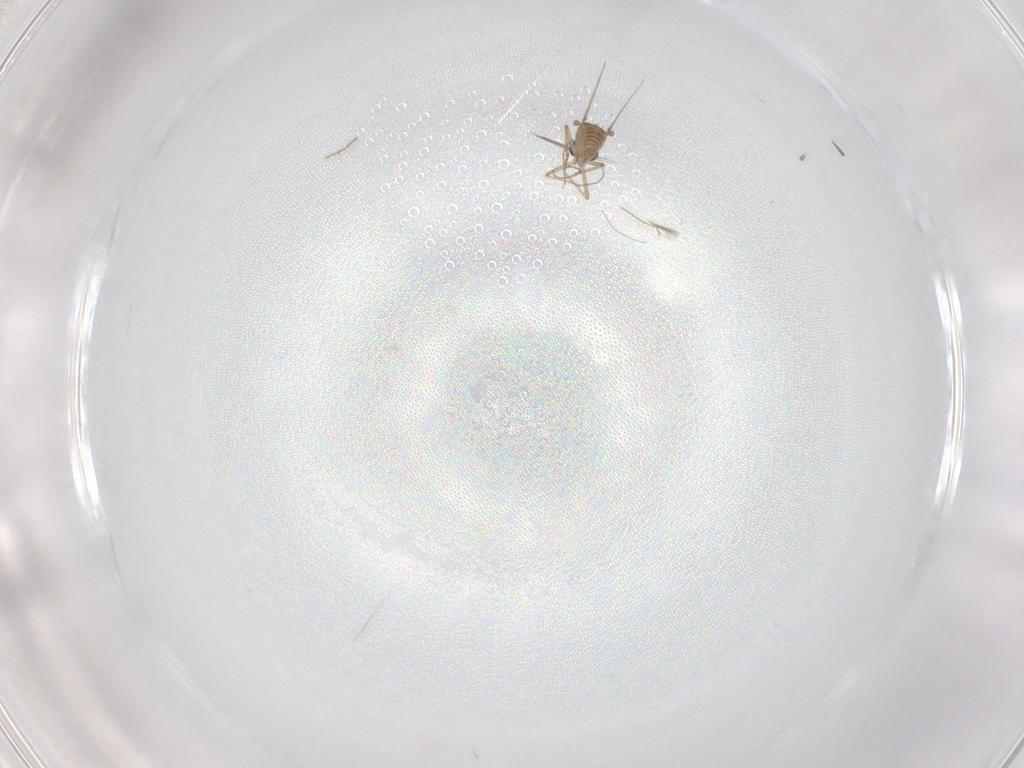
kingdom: Animalia
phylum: Arthropoda
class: Insecta
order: Diptera
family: Ceratopogonidae
